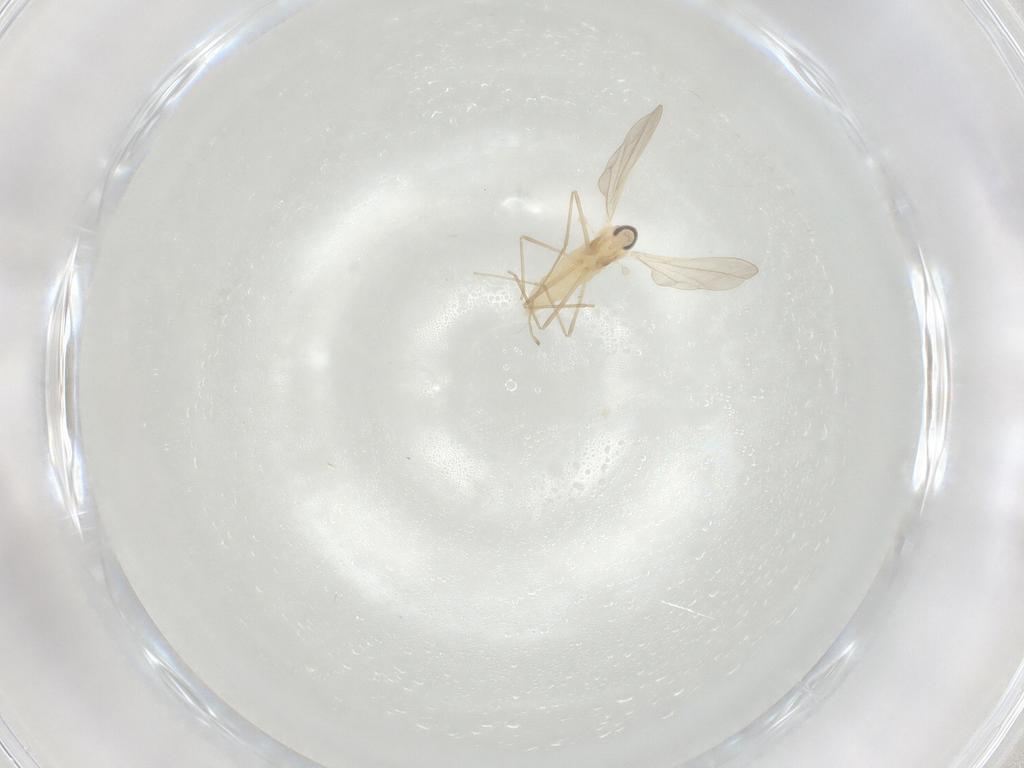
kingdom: Animalia
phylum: Arthropoda
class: Insecta
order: Diptera
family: Cecidomyiidae
